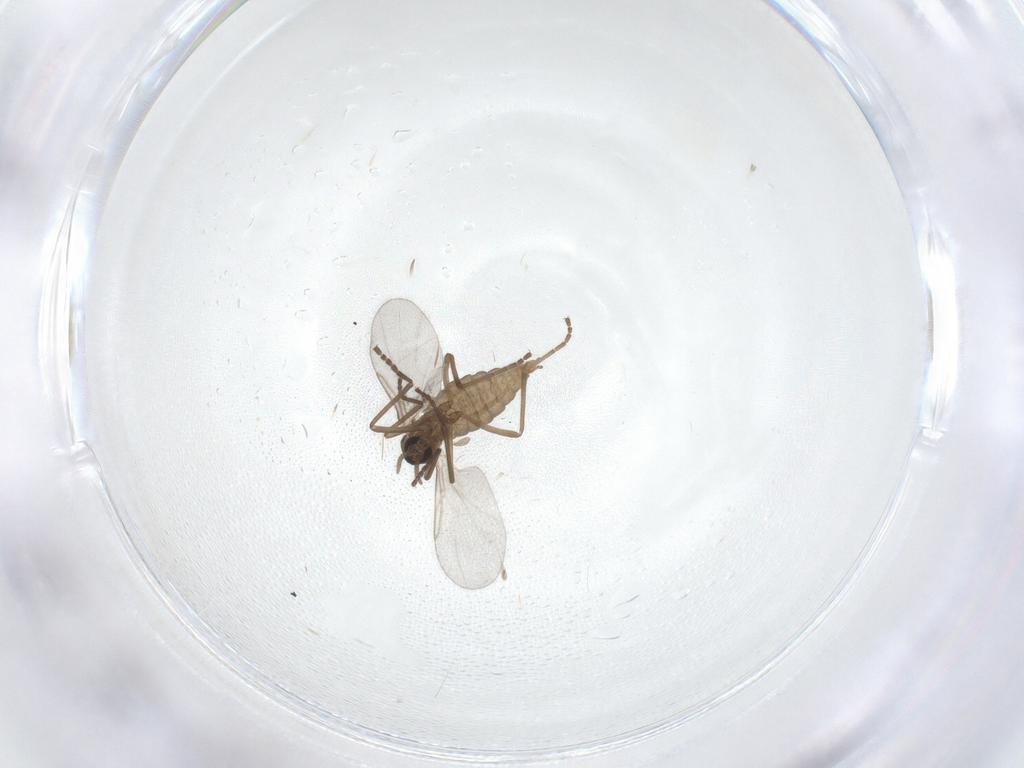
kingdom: Animalia
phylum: Arthropoda
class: Insecta
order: Diptera
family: Cecidomyiidae
